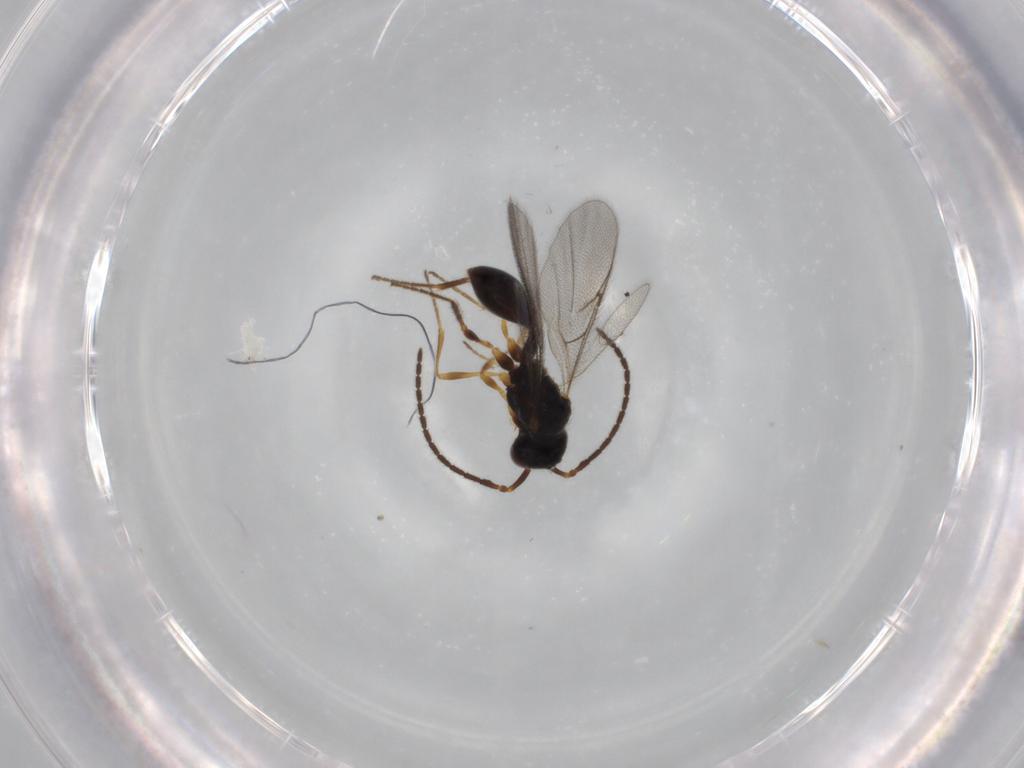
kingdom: Animalia
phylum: Arthropoda
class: Insecta
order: Hymenoptera
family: Diapriidae
